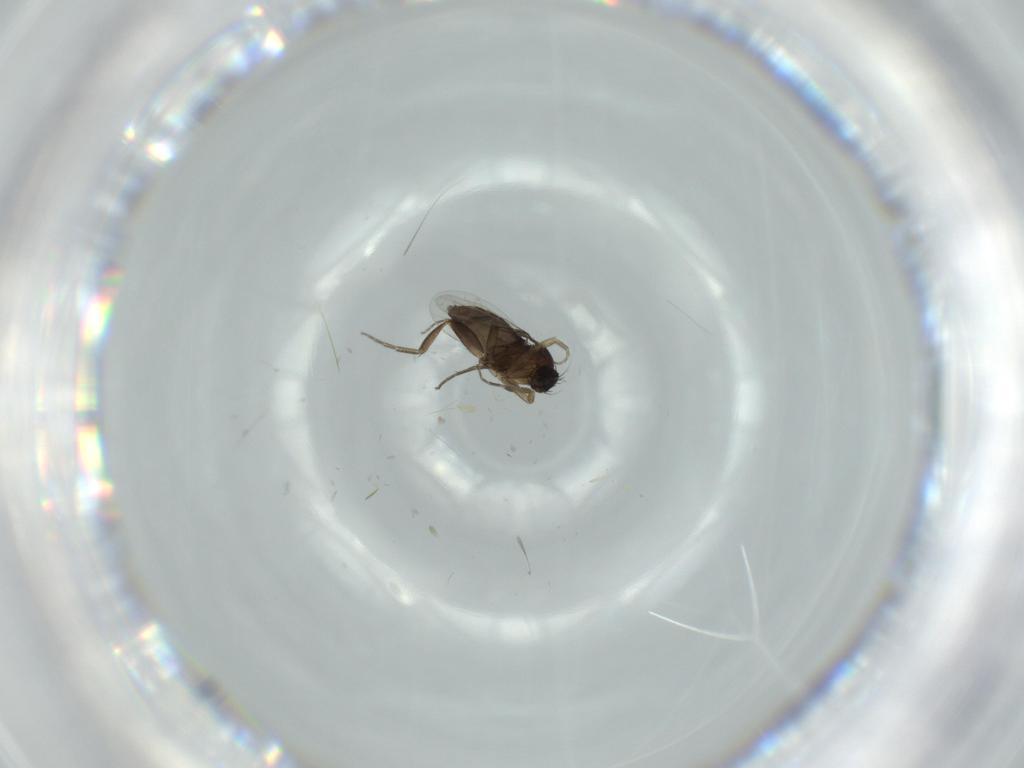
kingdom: Animalia
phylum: Arthropoda
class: Insecta
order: Diptera
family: Phoridae
